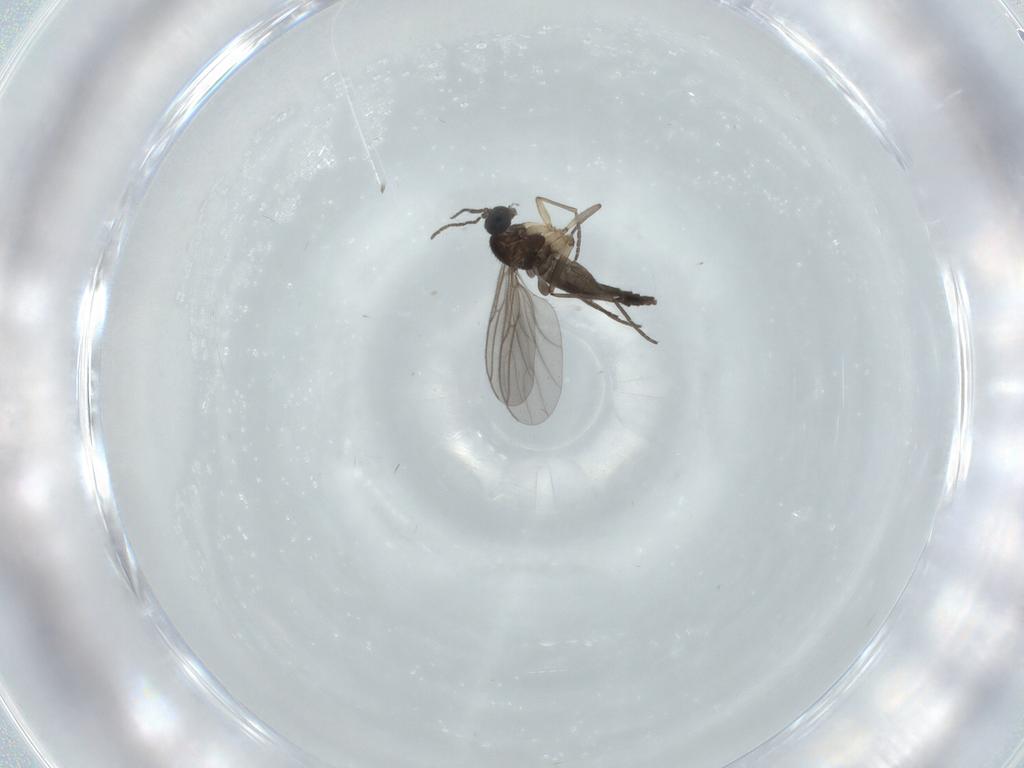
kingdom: Animalia
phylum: Arthropoda
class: Insecta
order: Diptera
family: Sciaridae
